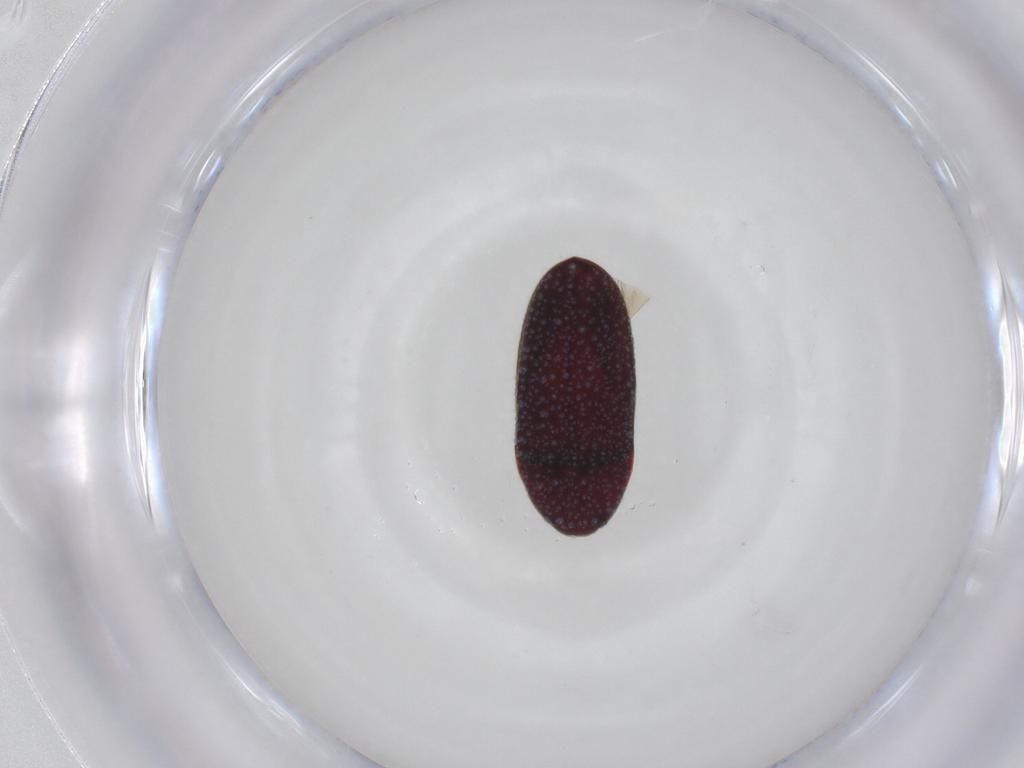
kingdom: Animalia
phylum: Arthropoda
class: Insecta
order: Coleoptera
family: Throscidae
